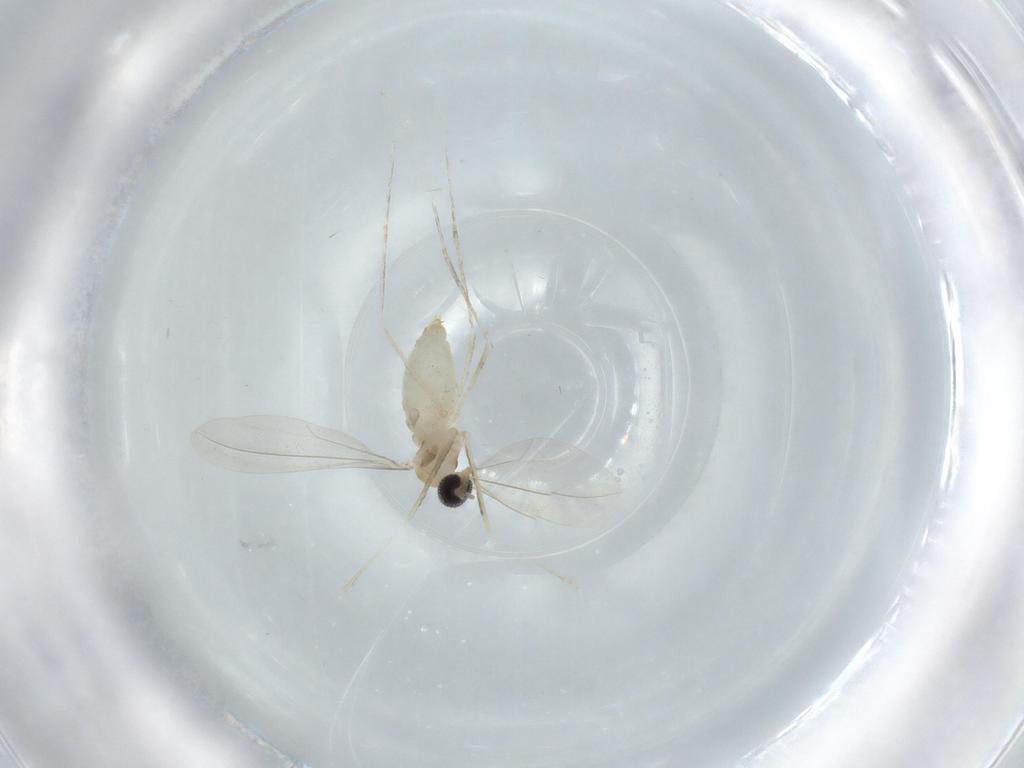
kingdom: Animalia
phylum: Arthropoda
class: Insecta
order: Diptera
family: Cecidomyiidae
